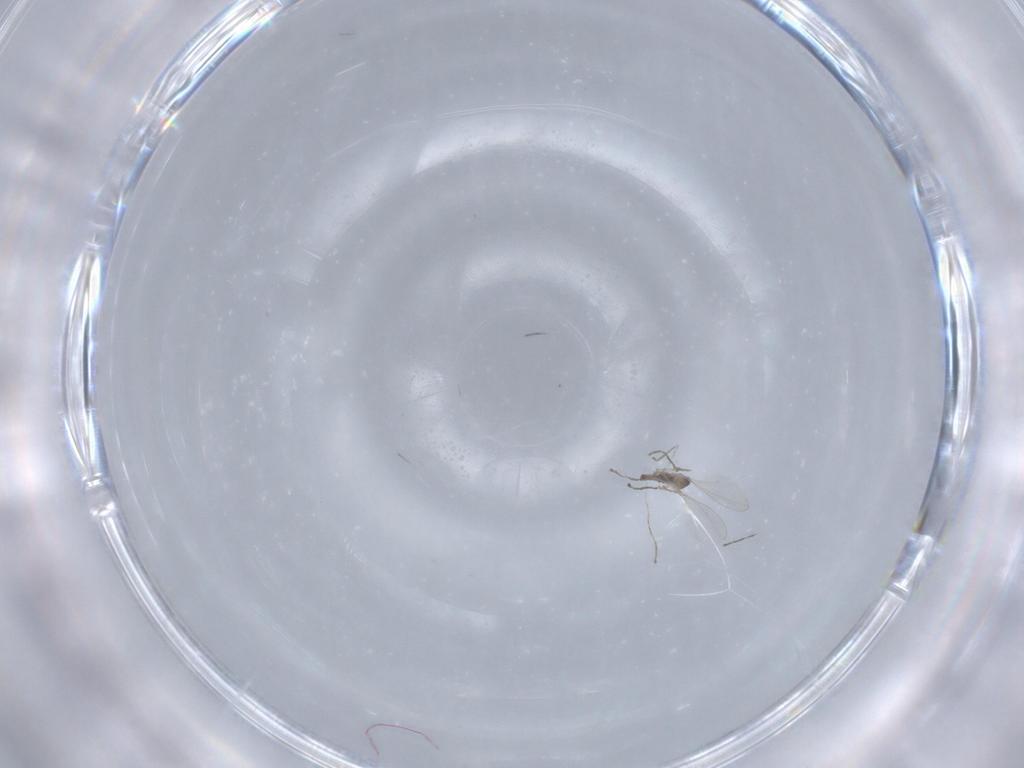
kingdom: Animalia
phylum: Arthropoda
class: Insecta
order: Diptera
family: Cecidomyiidae
